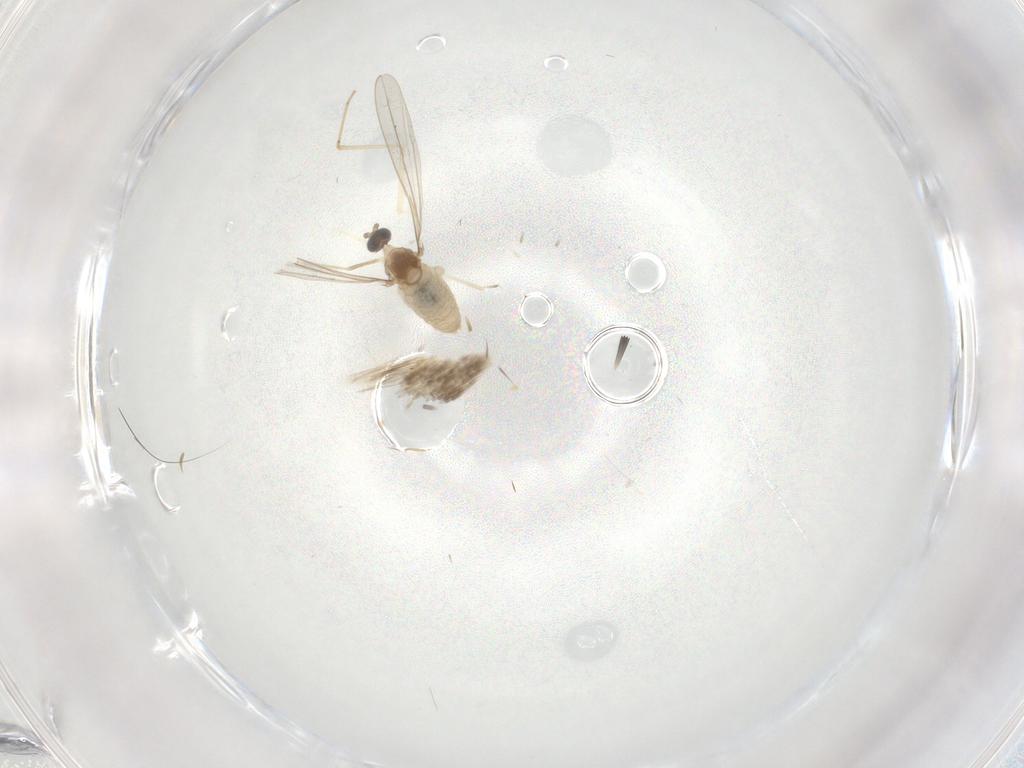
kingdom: Animalia
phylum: Arthropoda
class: Insecta
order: Diptera
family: Cecidomyiidae
